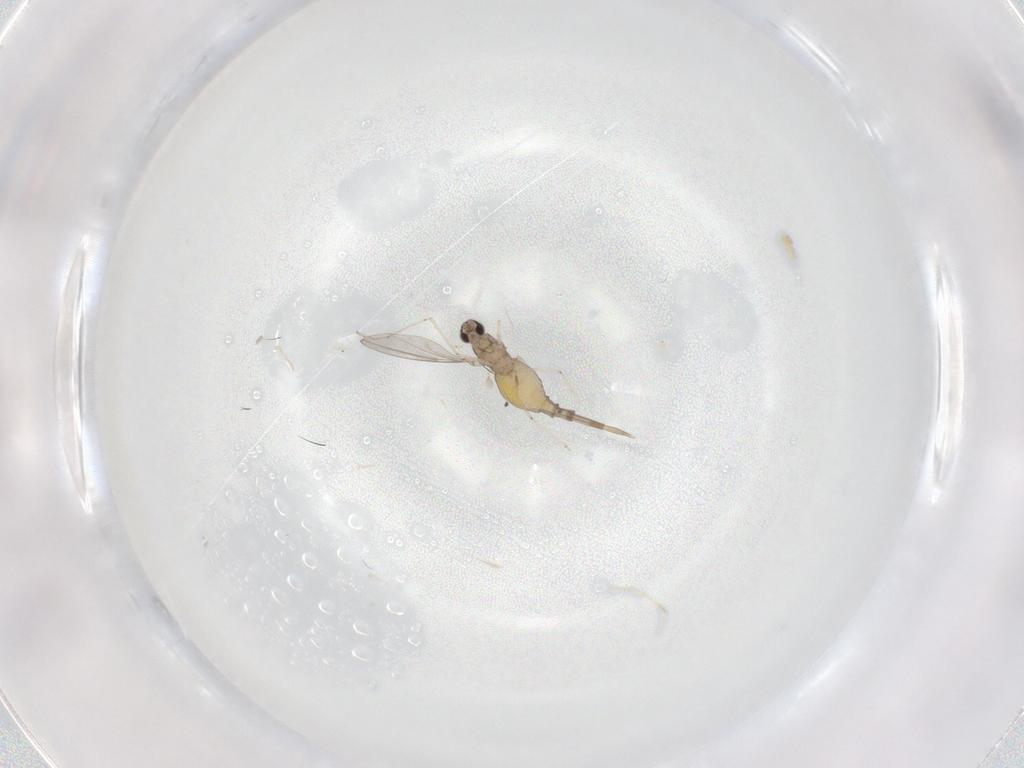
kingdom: Animalia
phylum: Arthropoda
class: Insecta
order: Diptera
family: Cecidomyiidae
